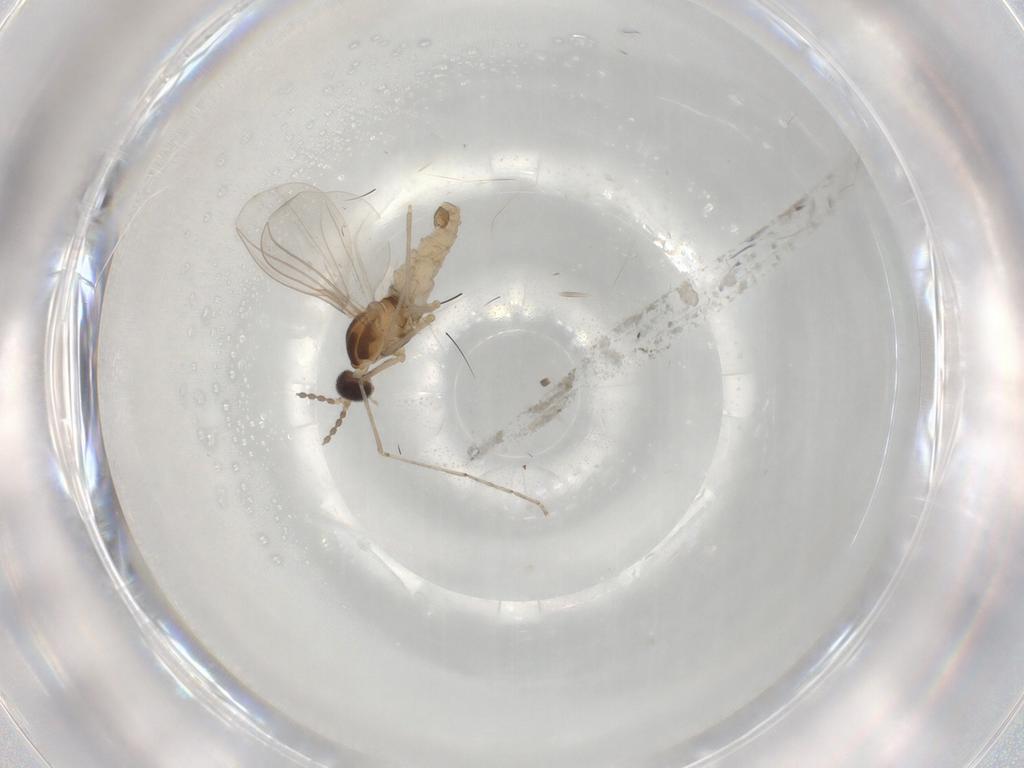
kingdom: Animalia
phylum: Arthropoda
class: Insecta
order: Diptera
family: Cecidomyiidae
